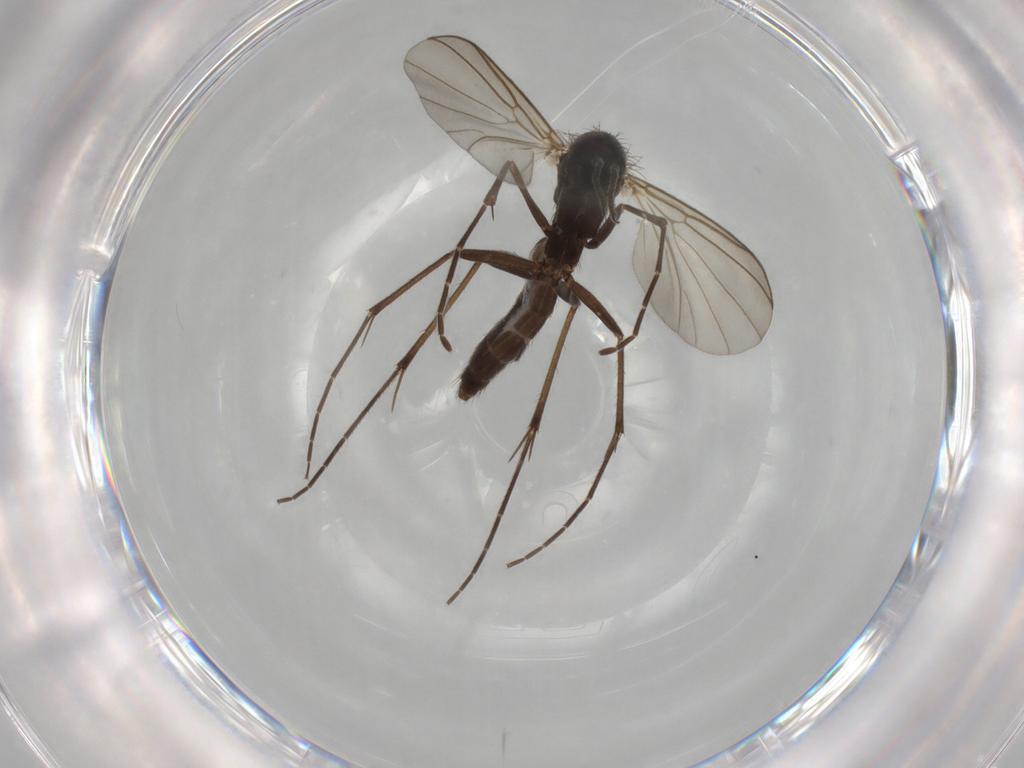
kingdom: Animalia
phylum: Arthropoda
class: Insecta
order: Diptera
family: Mycetophilidae
